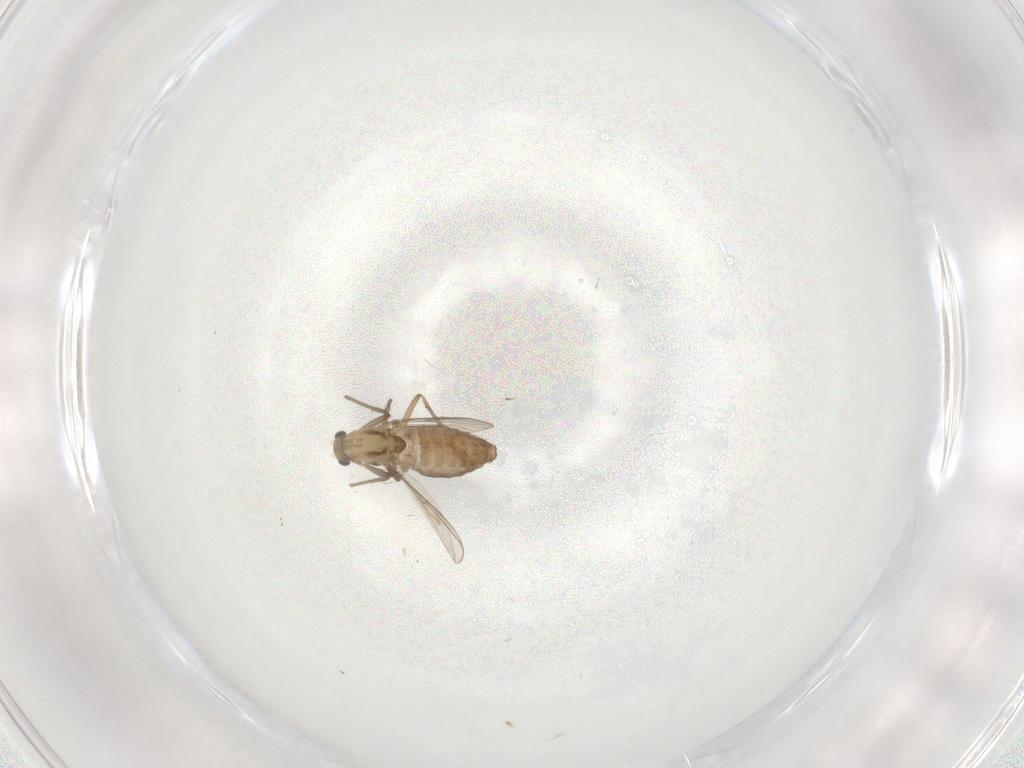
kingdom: Animalia
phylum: Arthropoda
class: Insecta
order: Diptera
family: Chironomidae
